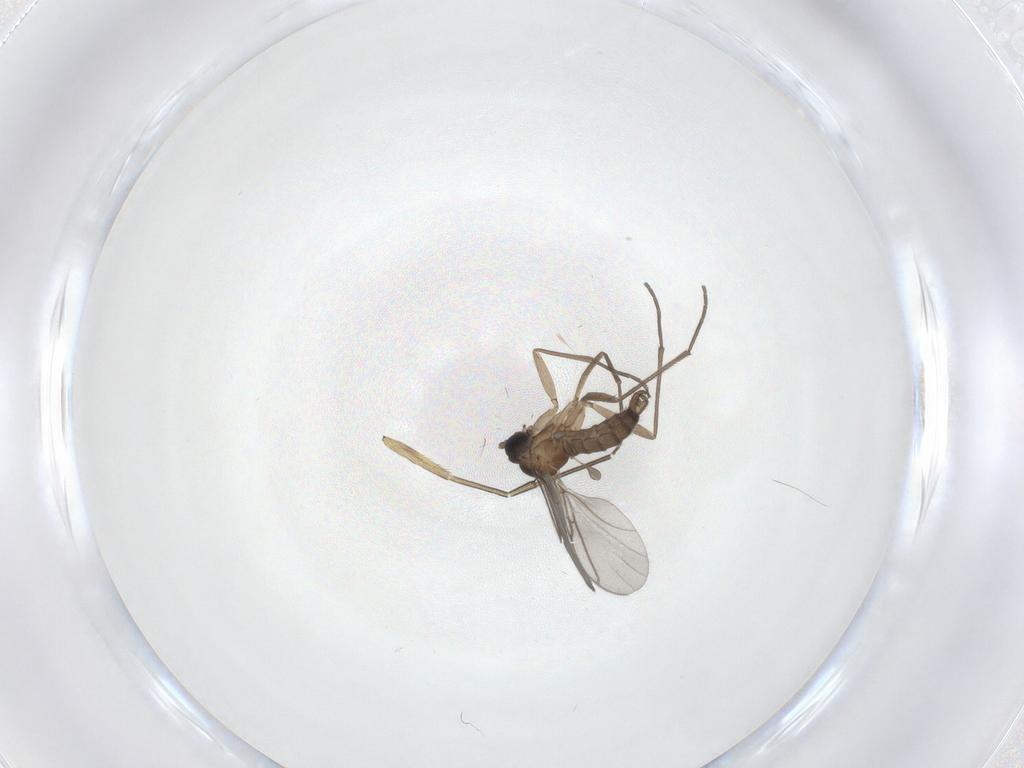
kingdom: Animalia
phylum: Arthropoda
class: Insecta
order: Diptera
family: Keroplatidae
